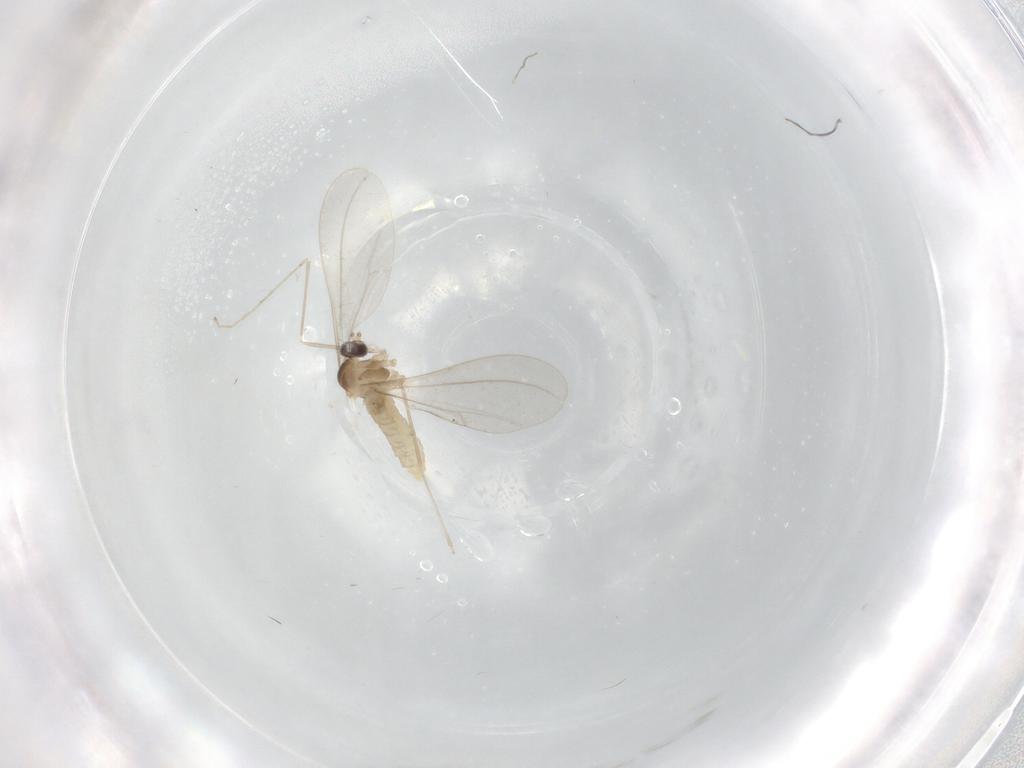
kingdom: Animalia
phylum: Arthropoda
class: Insecta
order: Diptera
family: Cecidomyiidae
